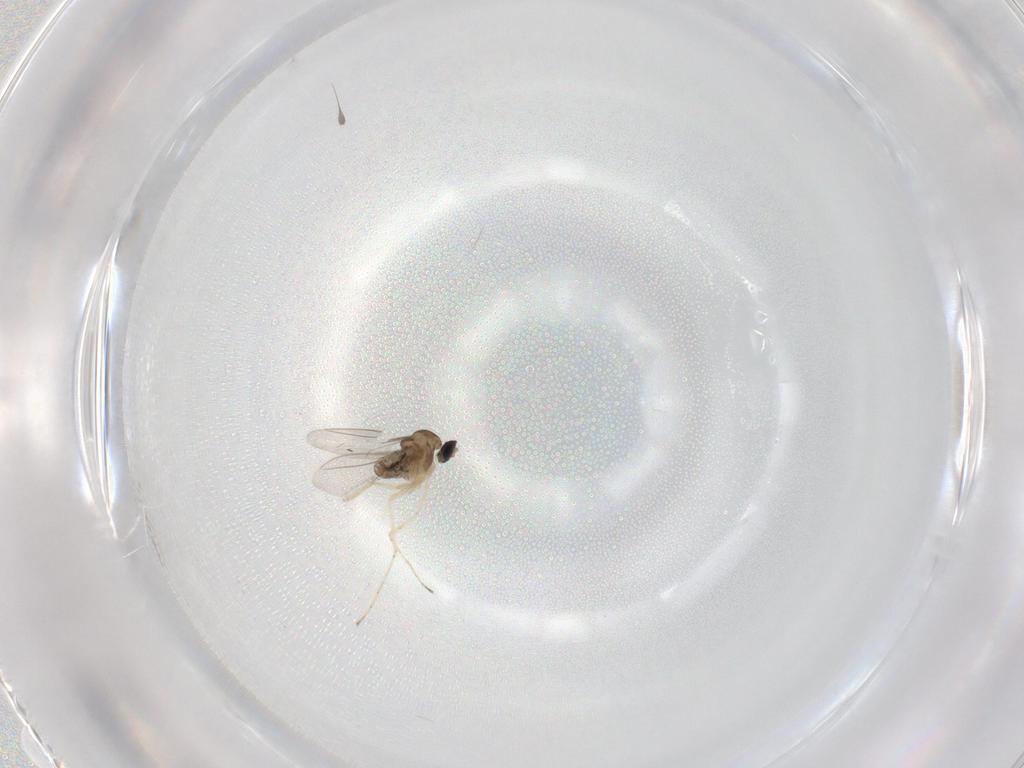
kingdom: Animalia
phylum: Arthropoda
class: Insecta
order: Diptera
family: Cecidomyiidae
